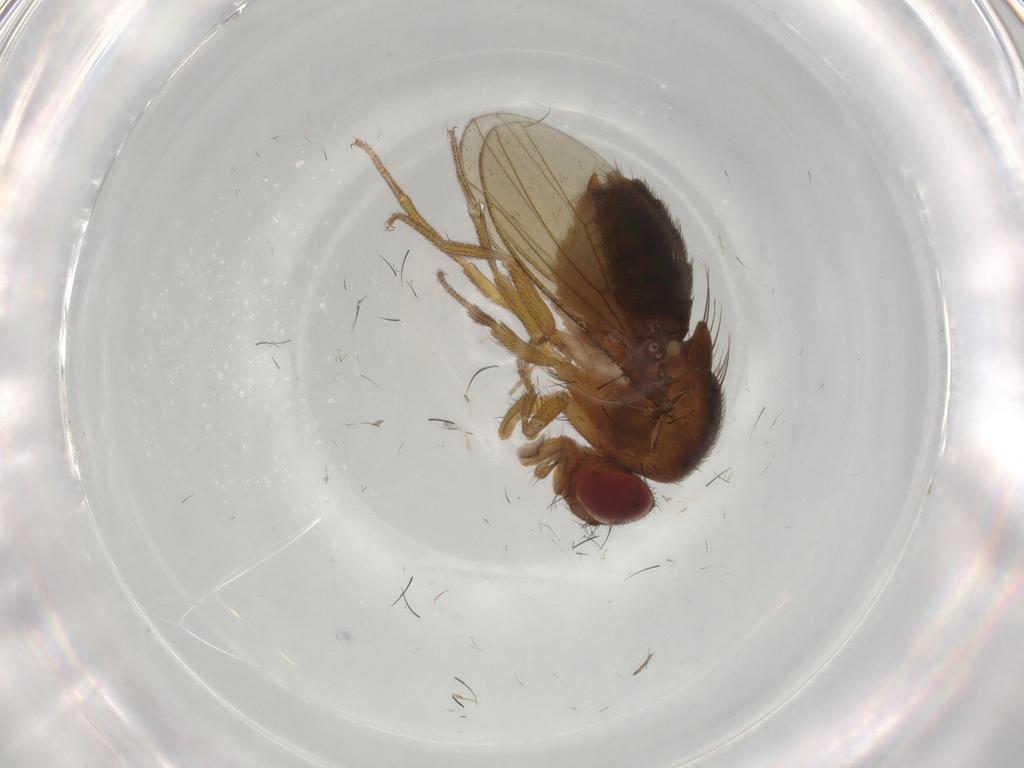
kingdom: Animalia
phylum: Arthropoda
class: Insecta
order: Diptera
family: Drosophilidae
